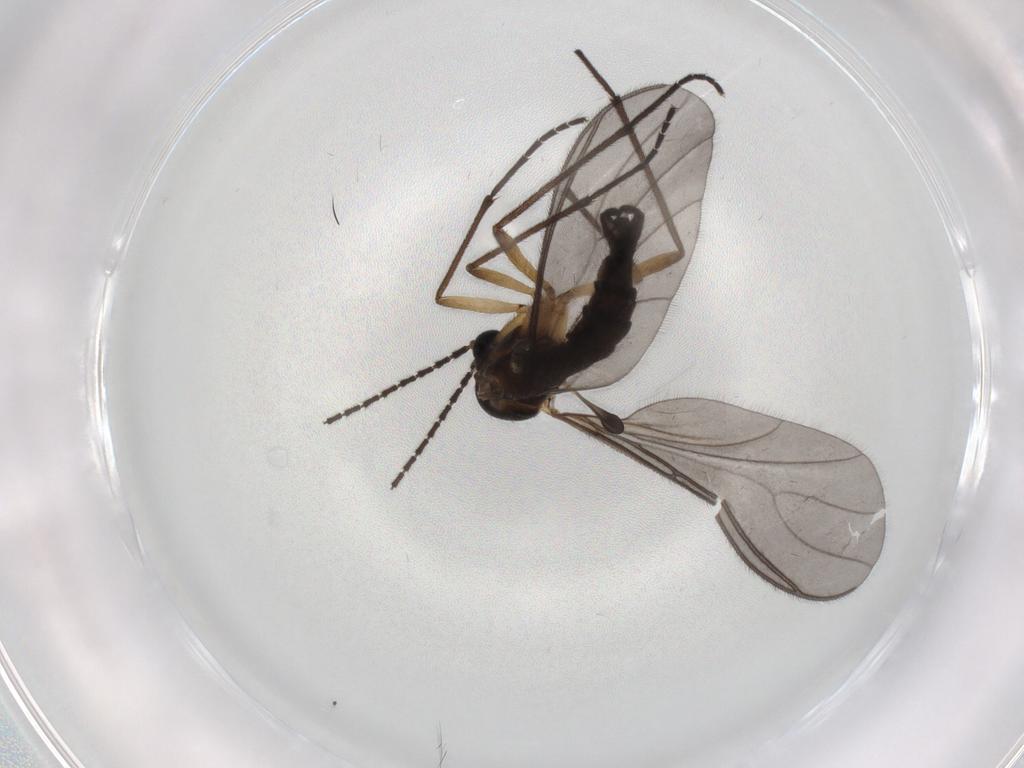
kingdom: Animalia
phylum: Arthropoda
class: Insecta
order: Diptera
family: Sciaridae
